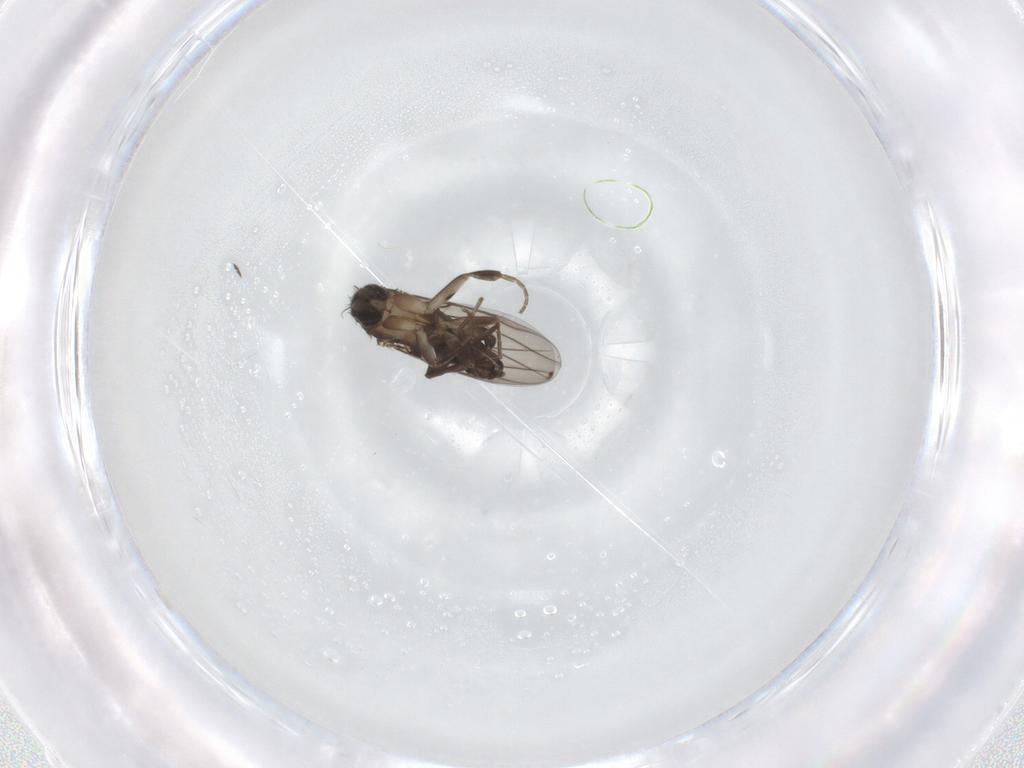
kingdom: Animalia
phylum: Arthropoda
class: Insecta
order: Diptera
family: Phoridae
